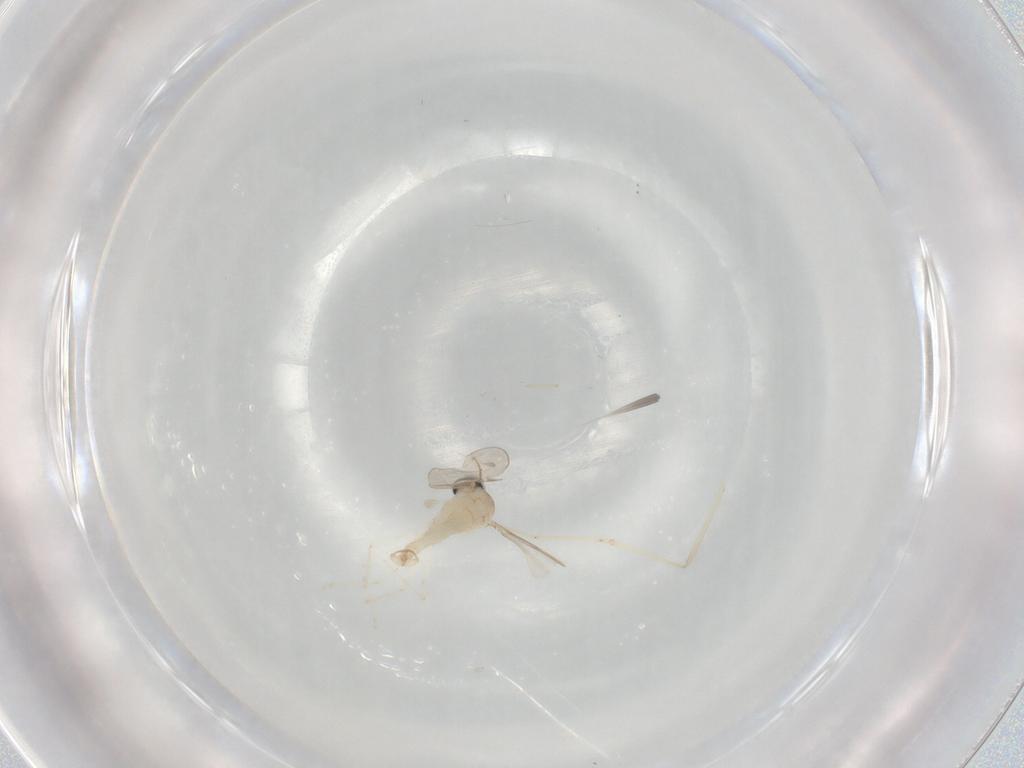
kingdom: Animalia
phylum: Arthropoda
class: Insecta
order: Diptera
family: Cecidomyiidae
